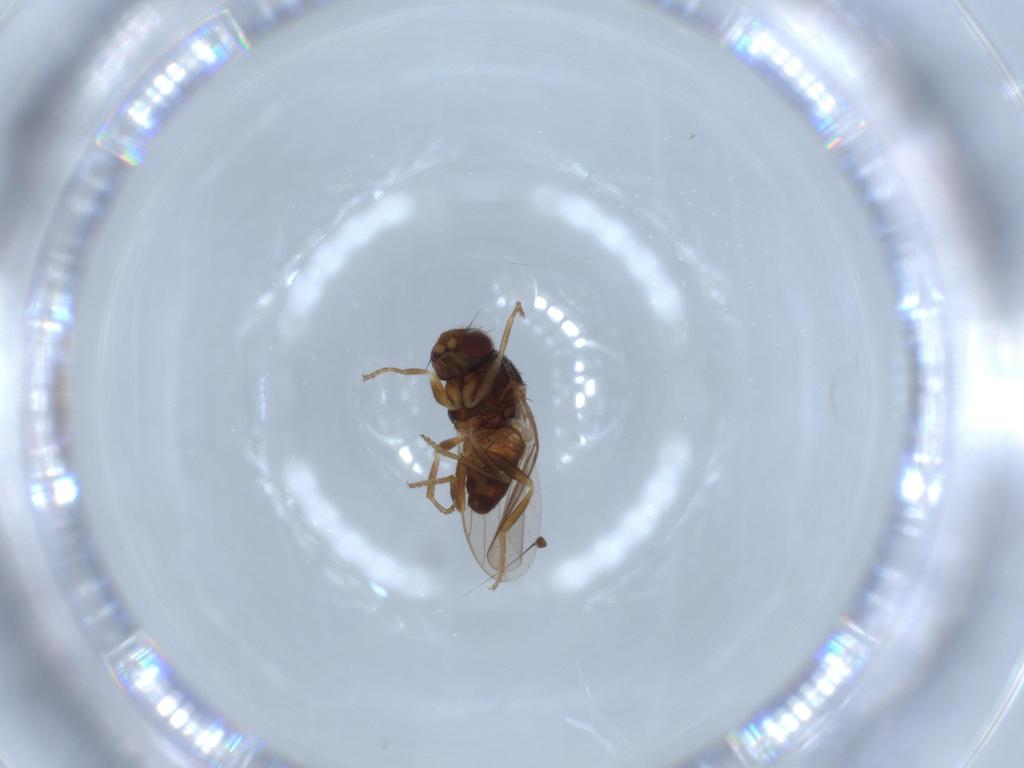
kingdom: Animalia
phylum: Arthropoda
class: Insecta
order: Diptera
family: Chloropidae
